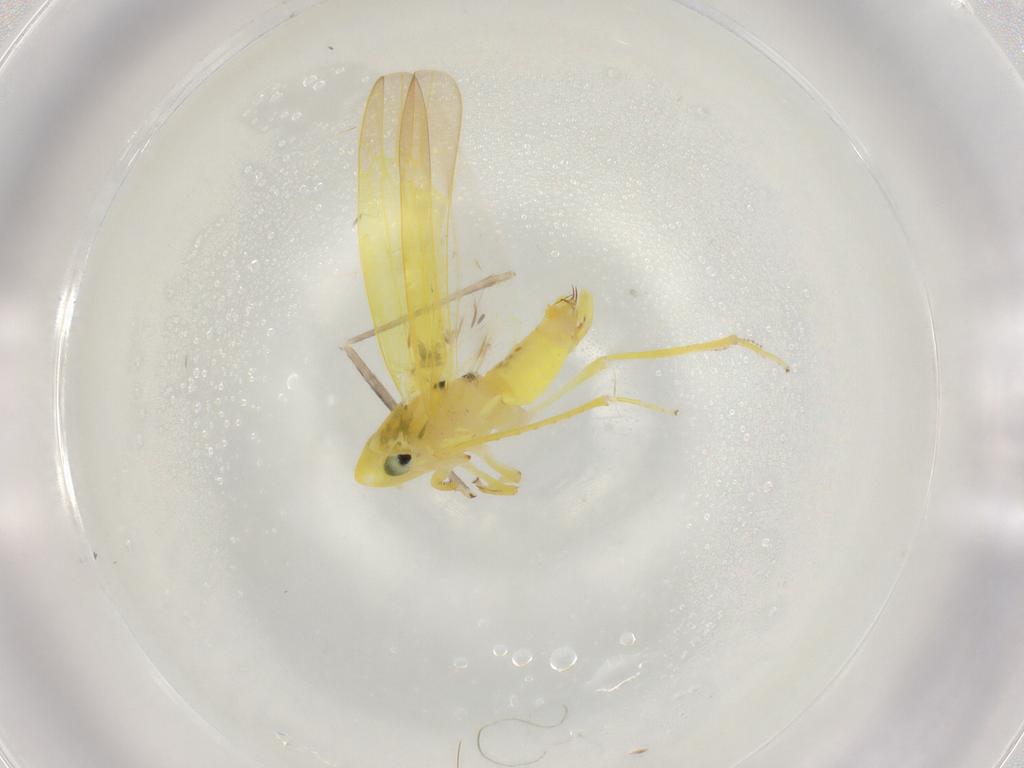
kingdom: Animalia
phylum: Arthropoda
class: Insecta
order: Hemiptera
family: Cicadellidae
